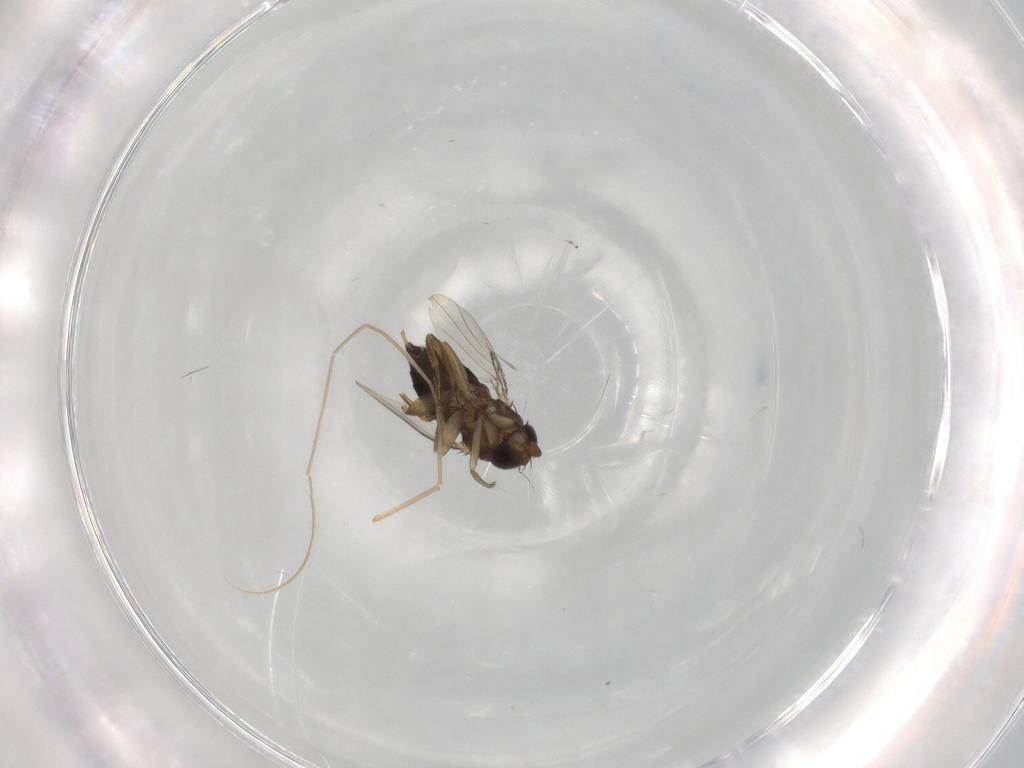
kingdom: Animalia
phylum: Arthropoda
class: Insecta
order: Diptera
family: Phoridae
